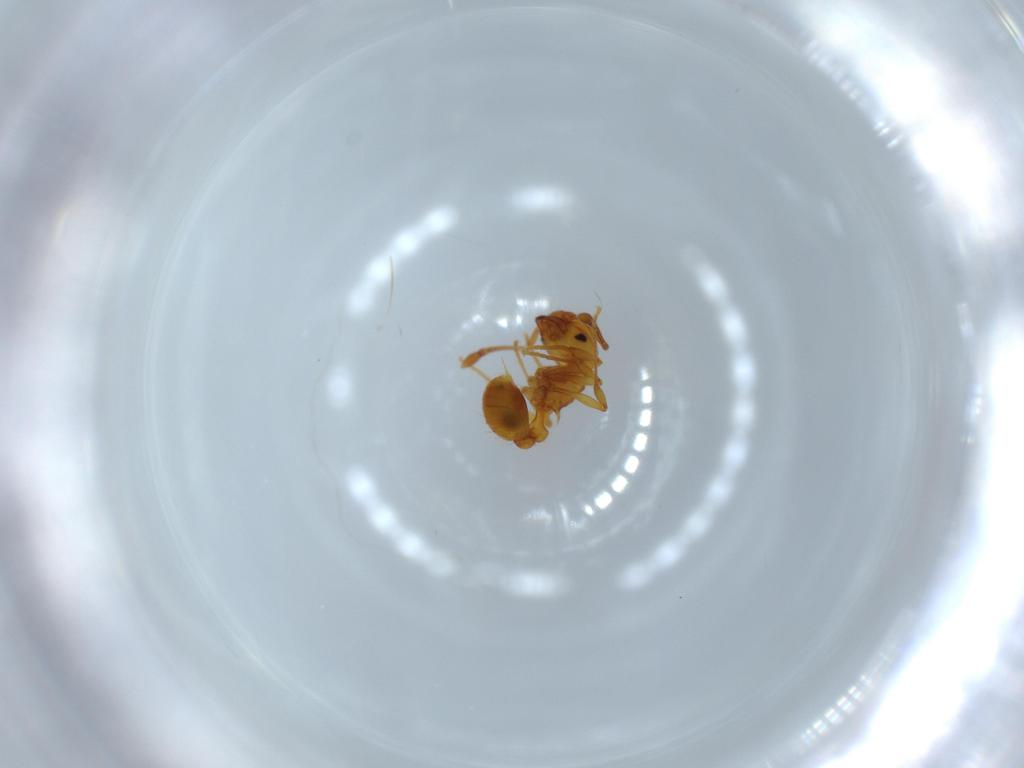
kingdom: Animalia
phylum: Arthropoda
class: Insecta
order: Hymenoptera
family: Formicidae
